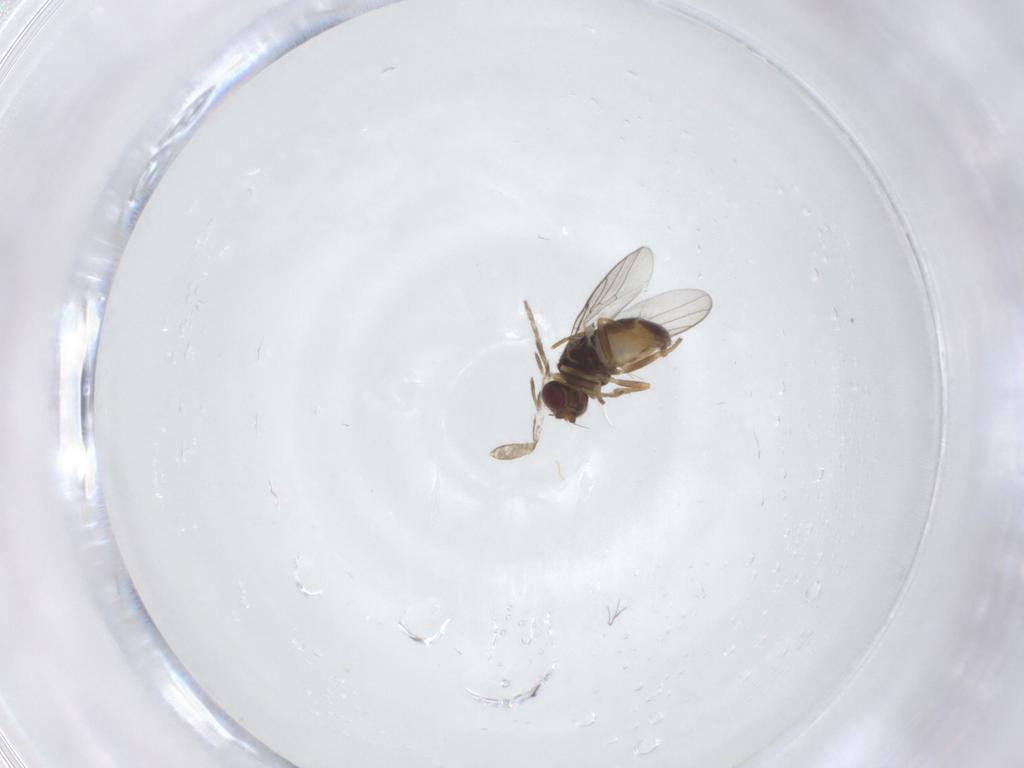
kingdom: Animalia
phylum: Arthropoda
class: Insecta
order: Diptera
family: Chloropidae
